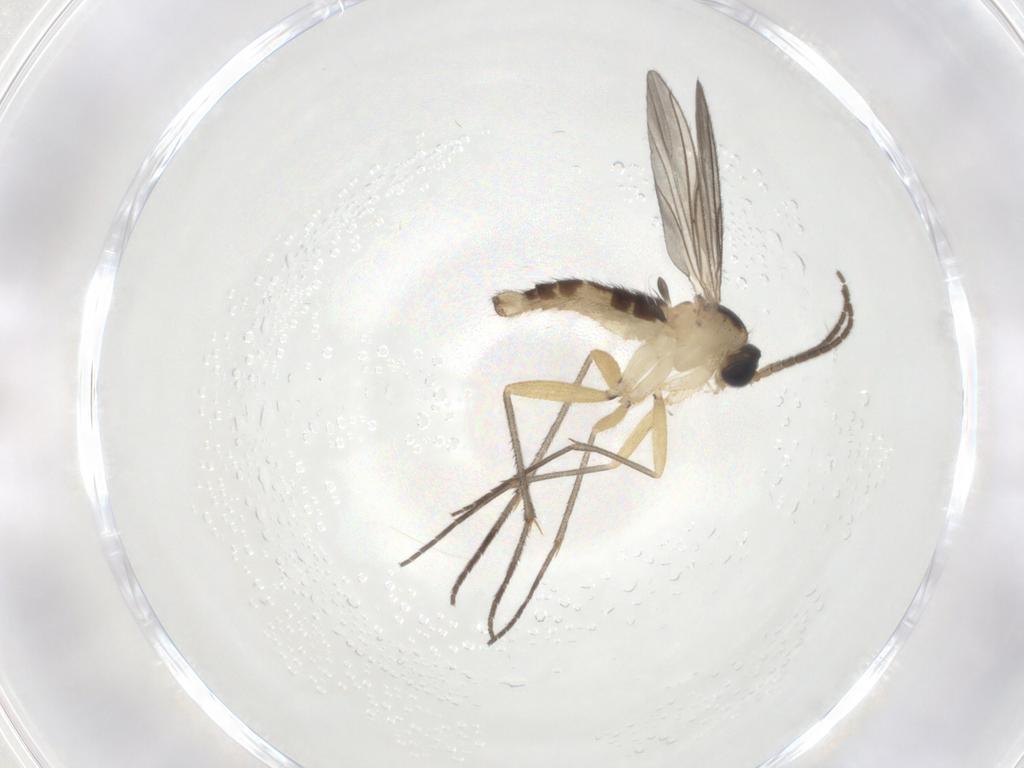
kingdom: Animalia
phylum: Arthropoda
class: Insecta
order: Diptera
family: Sciaridae
